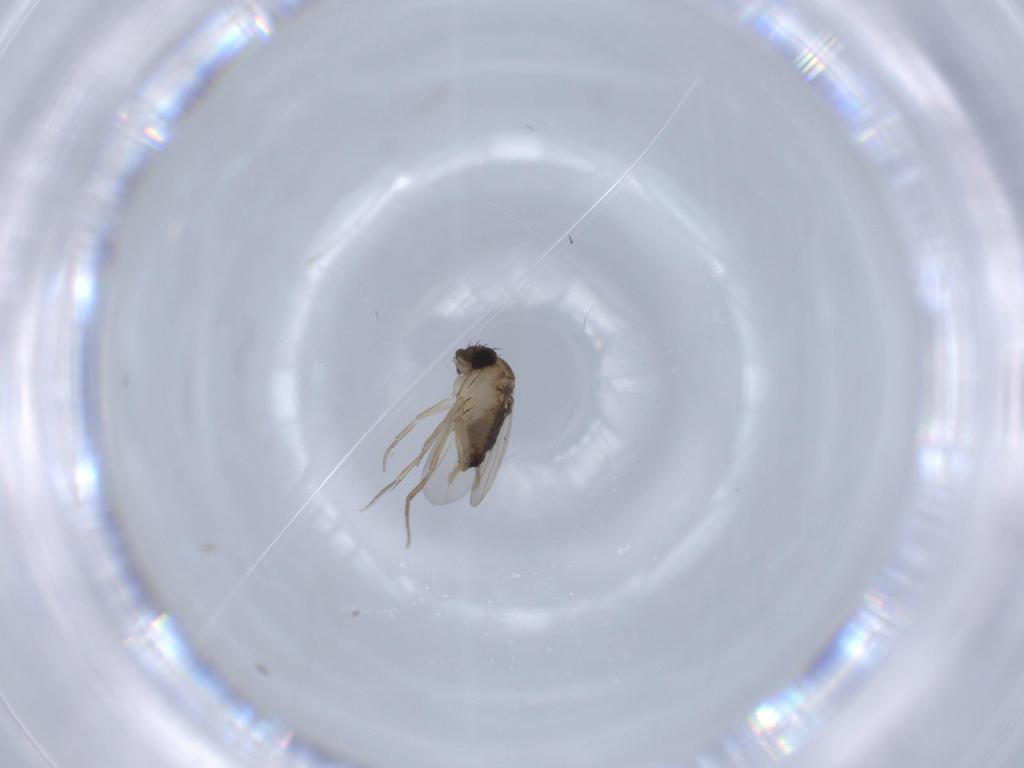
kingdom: Animalia
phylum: Arthropoda
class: Insecta
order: Diptera
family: Phoridae
